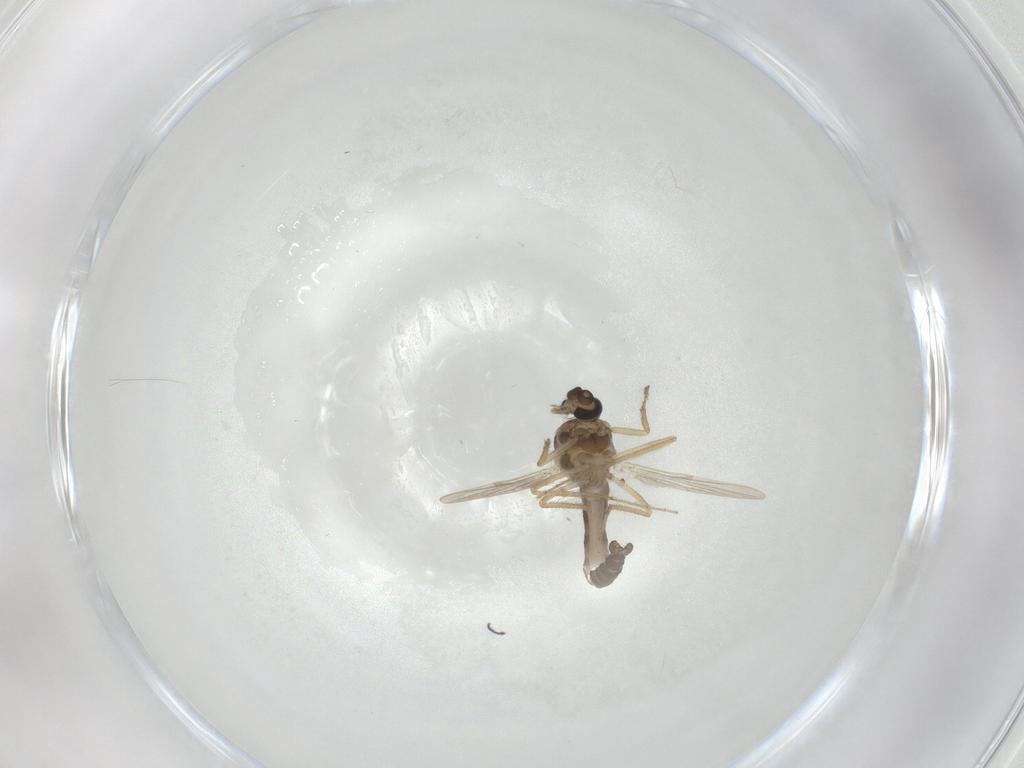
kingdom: Animalia
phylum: Arthropoda
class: Insecta
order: Diptera
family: Ceratopogonidae
